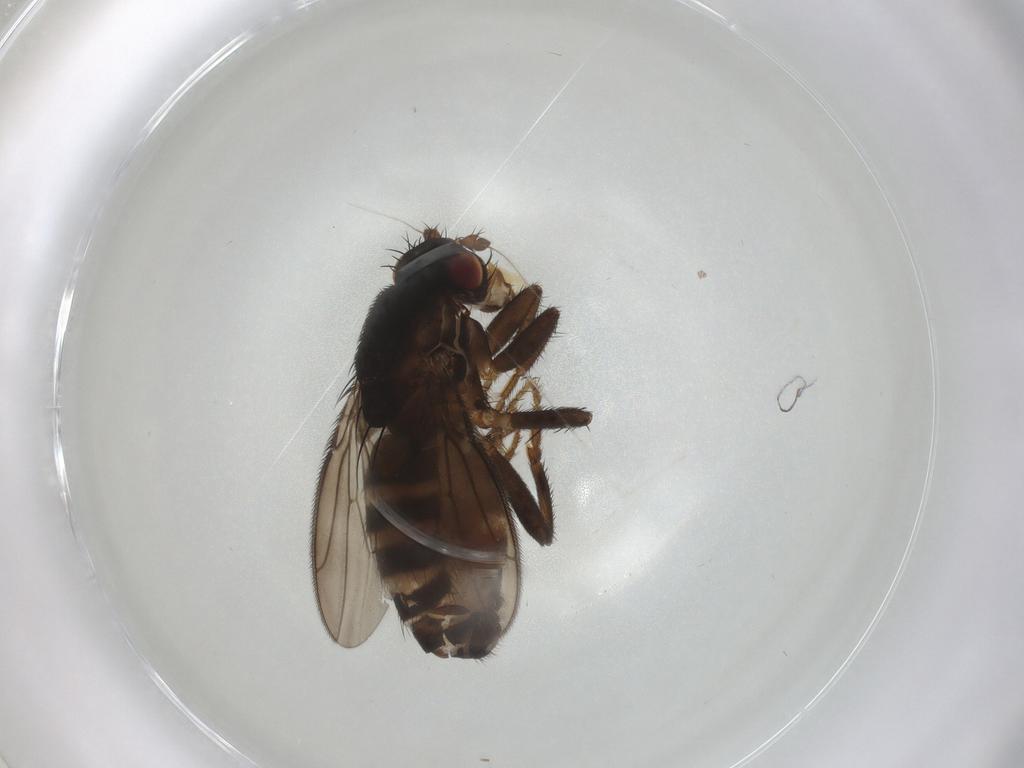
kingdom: Animalia
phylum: Arthropoda
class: Insecta
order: Diptera
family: Sphaeroceridae
